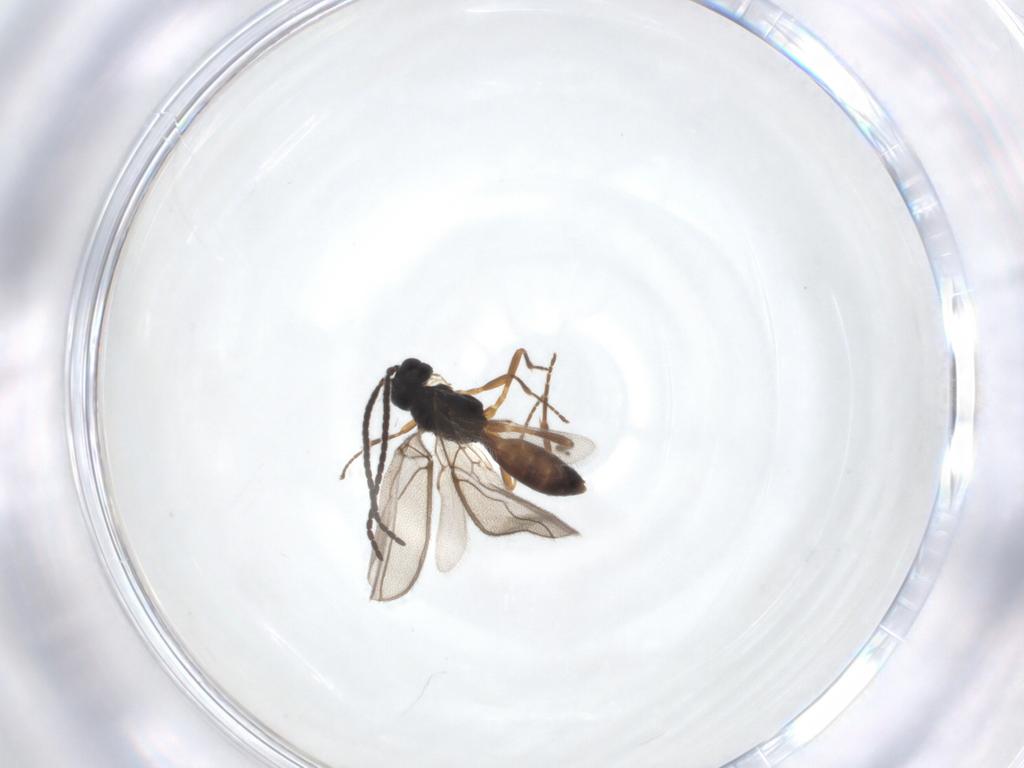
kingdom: Animalia
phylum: Arthropoda
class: Insecta
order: Hymenoptera
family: Braconidae
